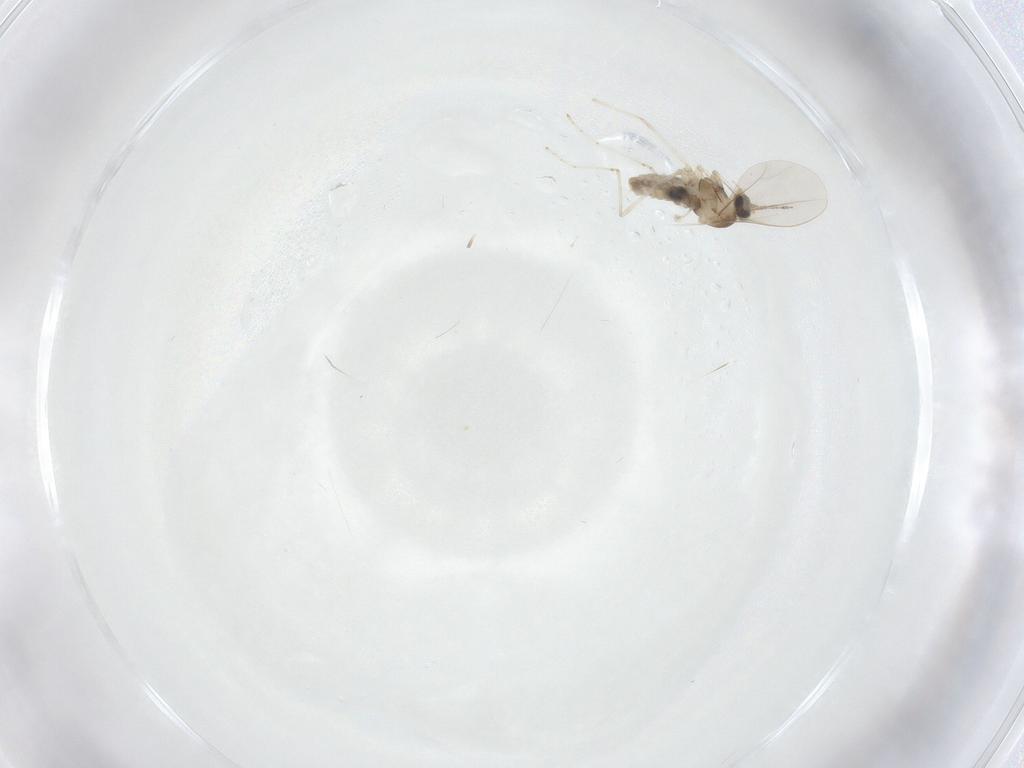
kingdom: Animalia
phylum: Arthropoda
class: Insecta
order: Diptera
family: Cecidomyiidae
